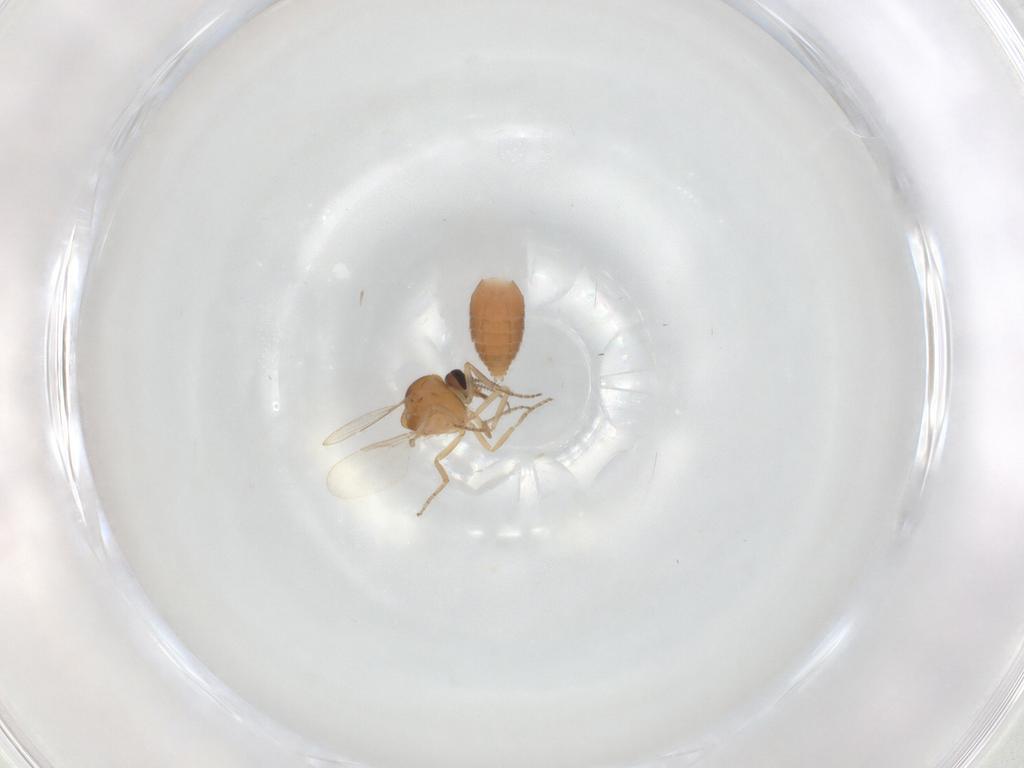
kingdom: Animalia
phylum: Arthropoda
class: Insecta
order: Diptera
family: Ceratopogonidae
